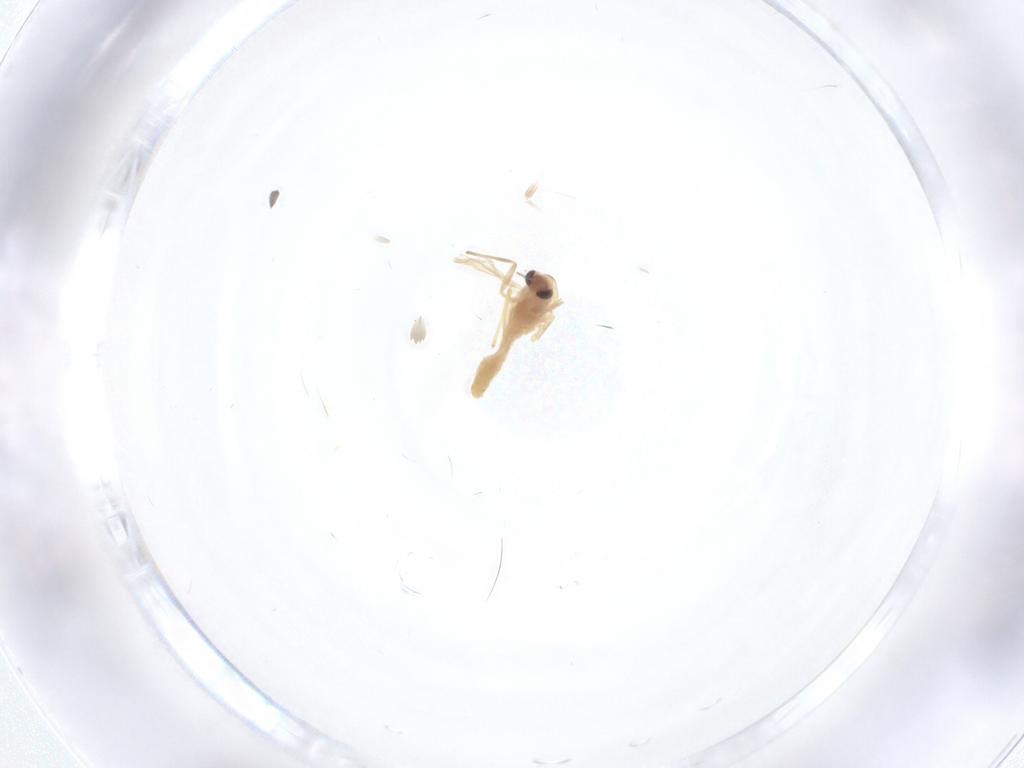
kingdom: Animalia
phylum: Arthropoda
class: Insecta
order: Diptera
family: Chironomidae
